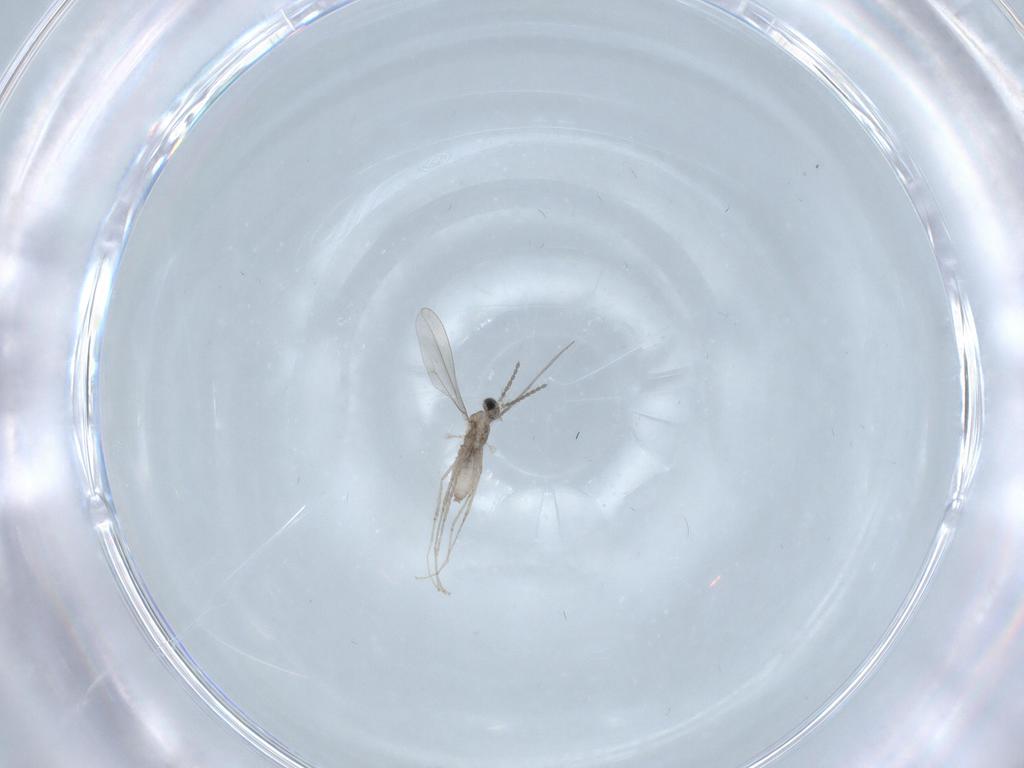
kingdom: Animalia
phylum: Arthropoda
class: Insecta
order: Diptera
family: Cecidomyiidae
